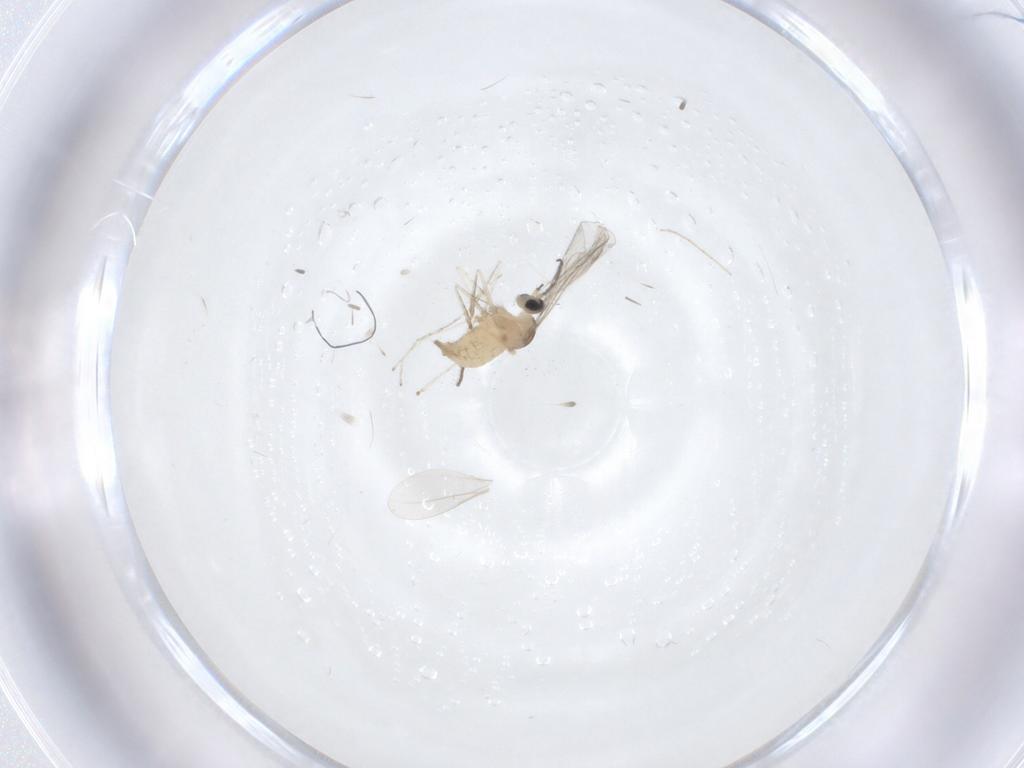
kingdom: Animalia
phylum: Arthropoda
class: Insecta
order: Diptera
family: Cecidomyiidae
